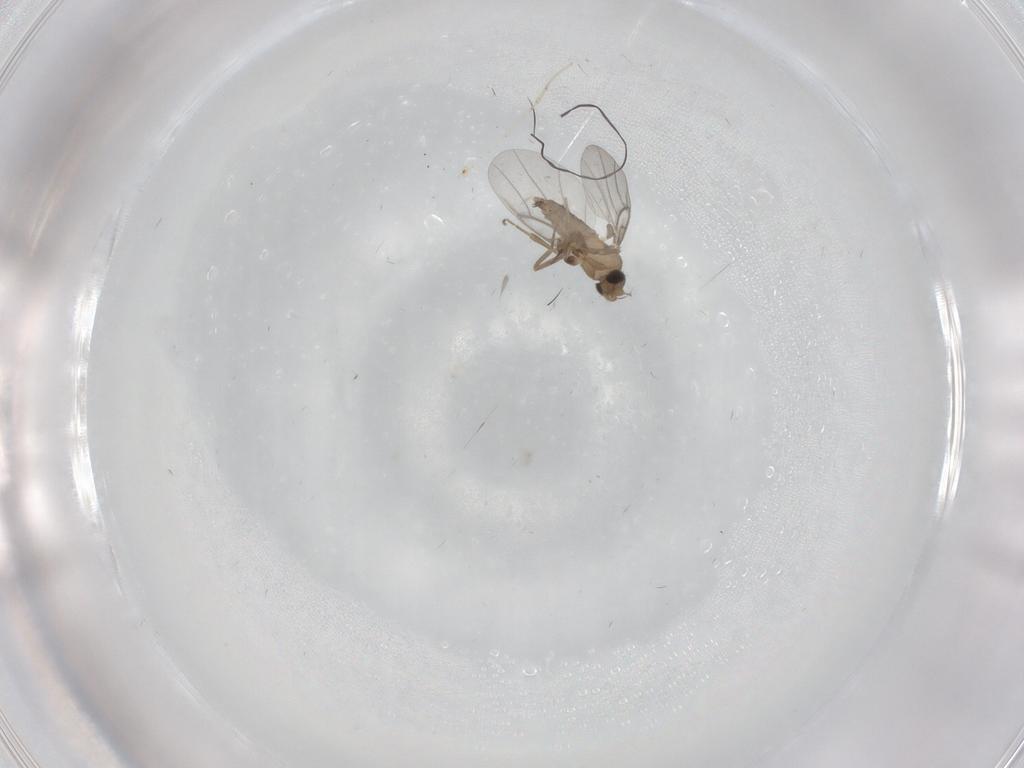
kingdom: Animalia
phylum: Arthropoda
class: Insecta
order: Diptera
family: Cecidomyiidae
